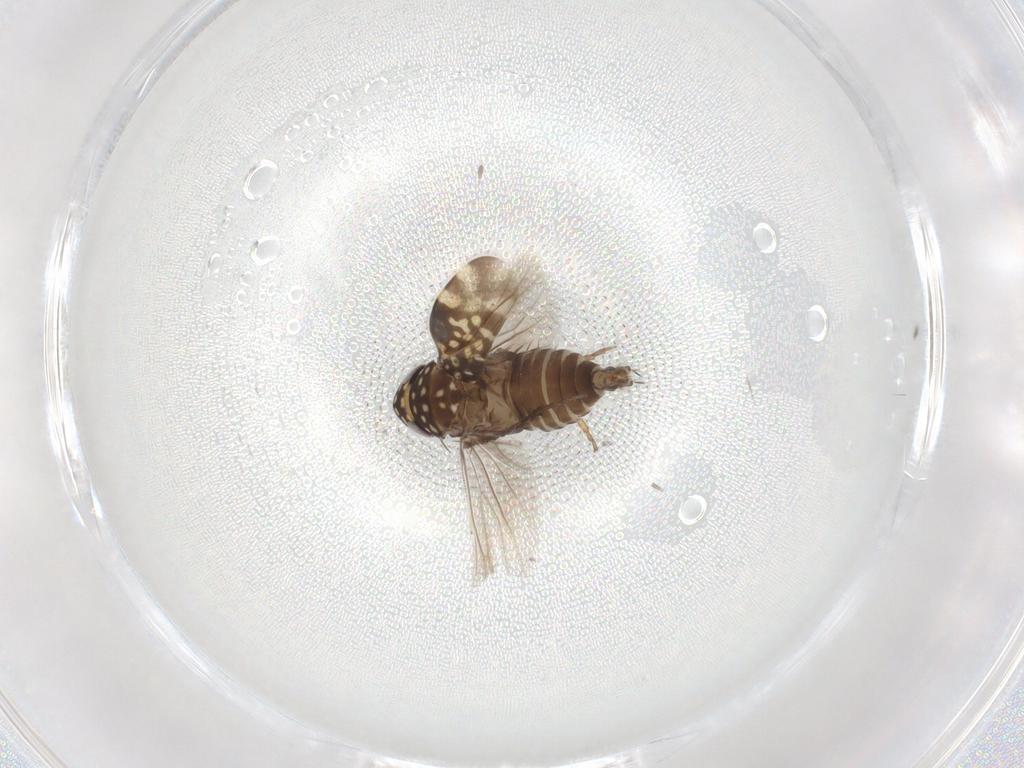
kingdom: Animalia
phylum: Arthropoda
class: Insecta
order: Hemiptera
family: Cicadellidae
